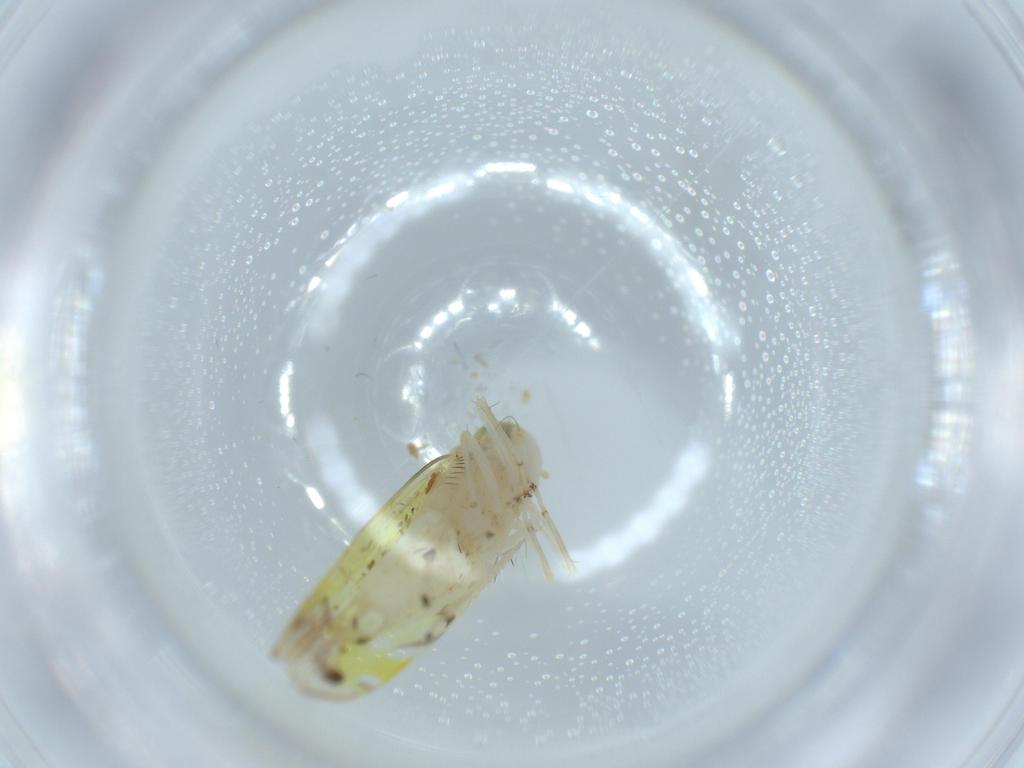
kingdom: Animalia
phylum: Arthropoda
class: Insecta
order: Hemiptera
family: Cicadellidae
